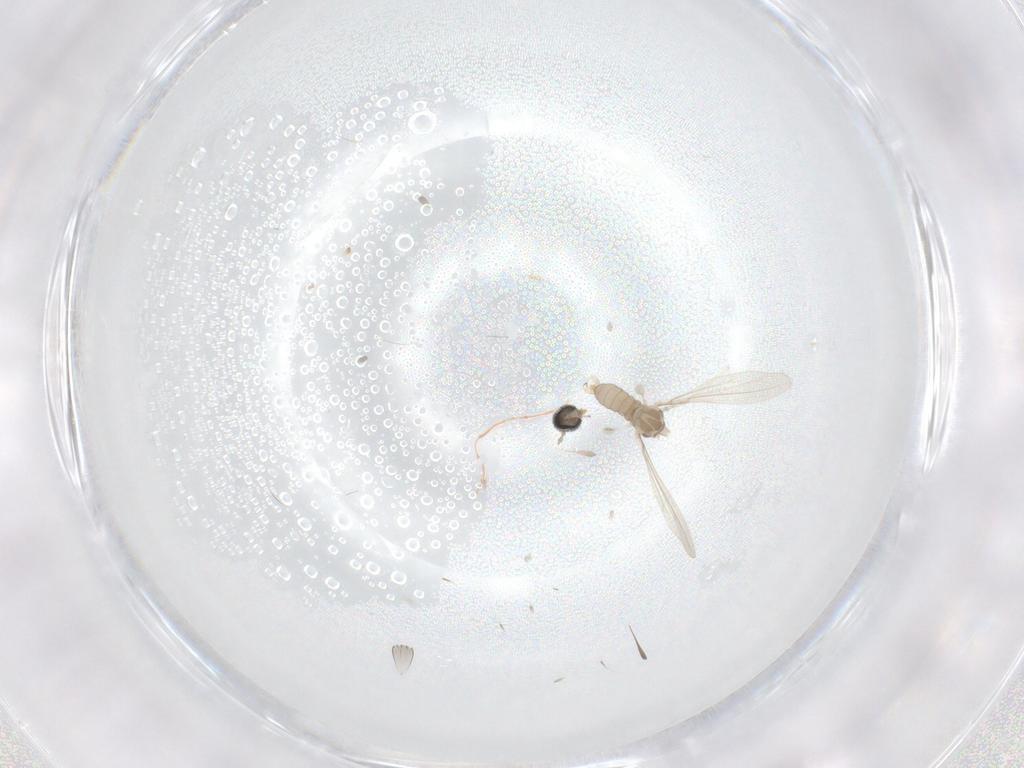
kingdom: Animalia
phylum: Arthropoda
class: Insecta
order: Diptera
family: Cecidomyiidae
